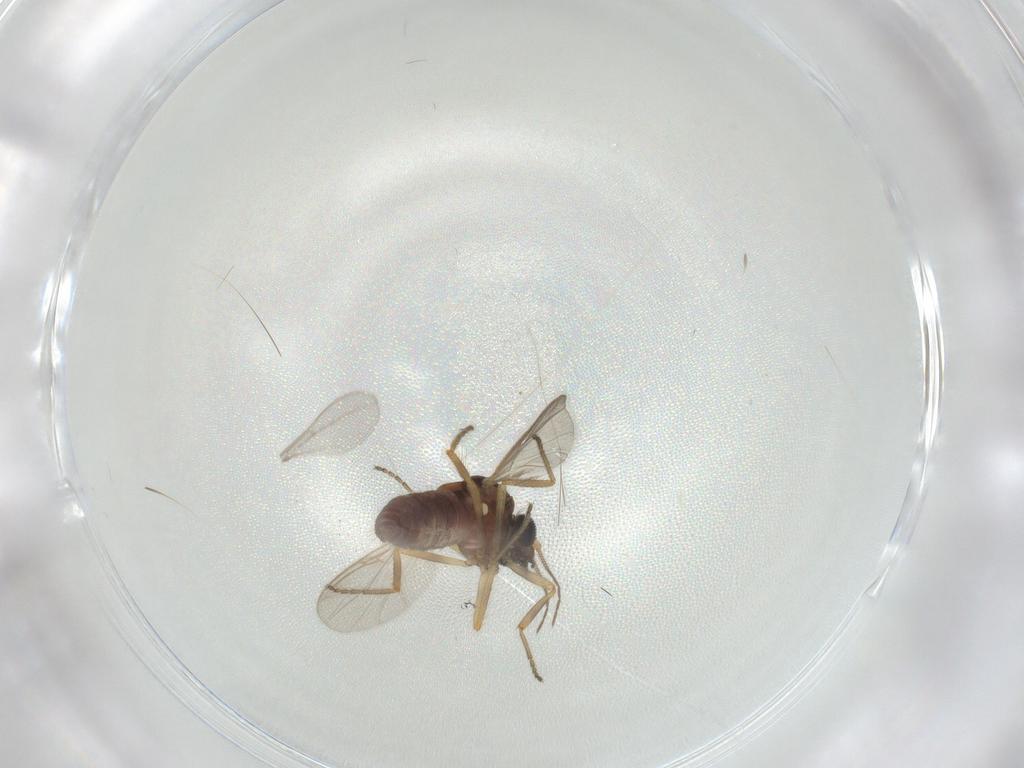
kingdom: Animalia
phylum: Arthropoda
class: Insecta
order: Diptera
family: Ceratopogonidae
